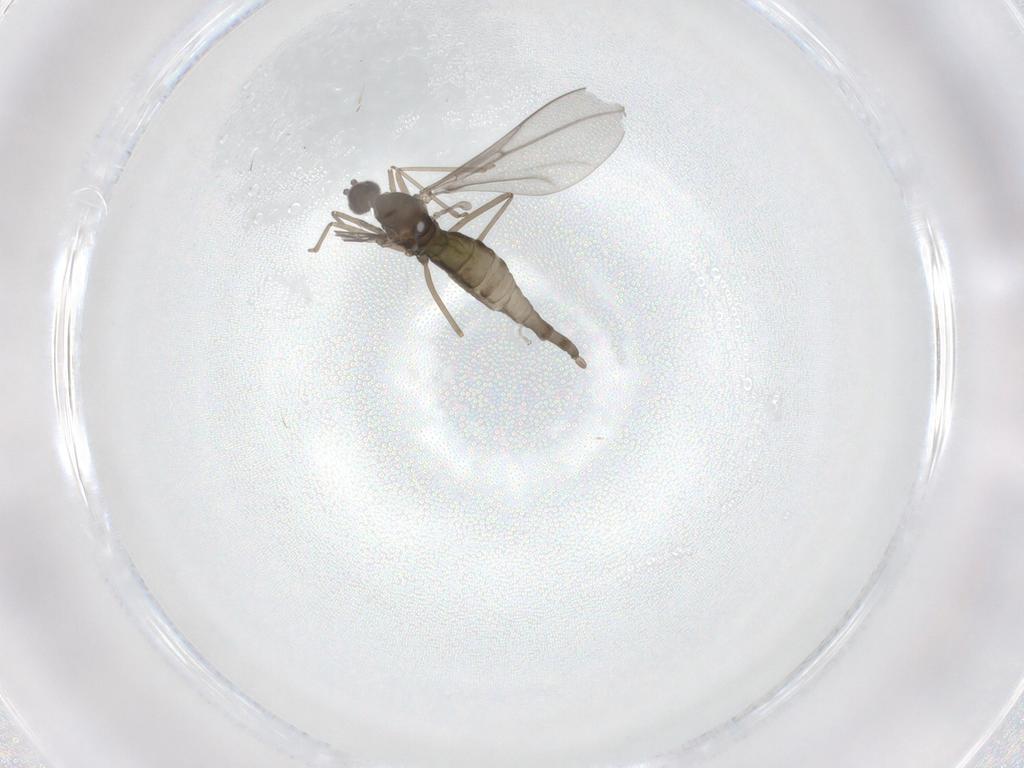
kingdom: Animalia
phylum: Arthropoda
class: Insecta
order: Diptera
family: Cecidomyiidae
